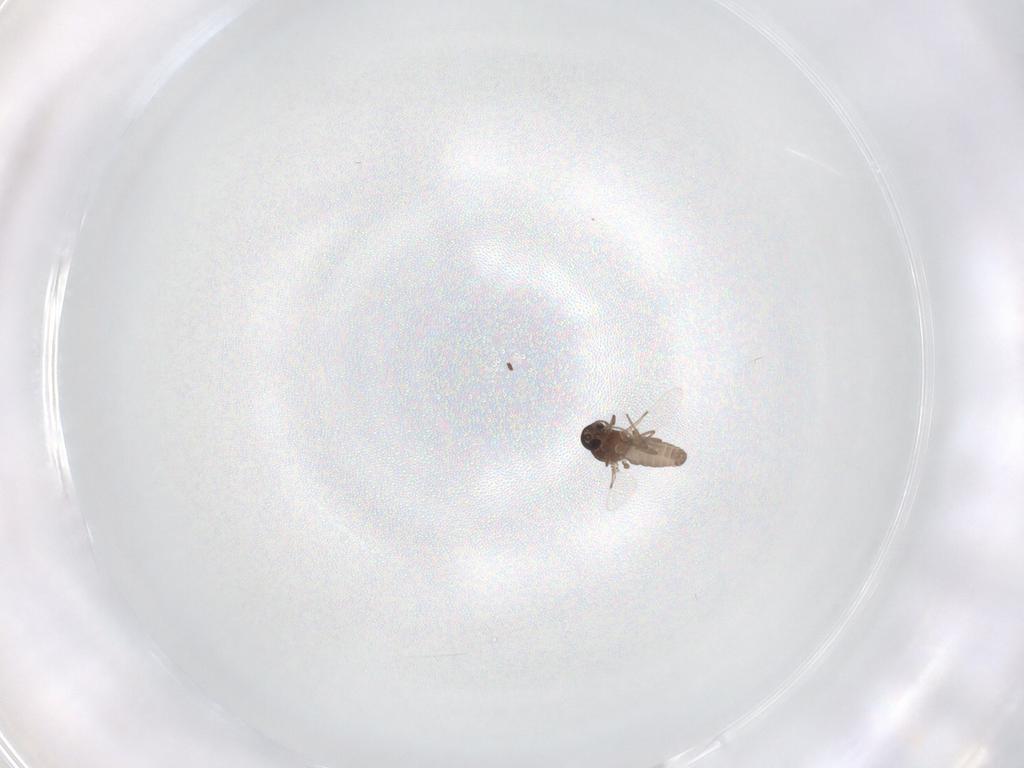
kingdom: Animalia
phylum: Arthropoda
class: Insecta
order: Diptera
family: Ceratopogonidae
